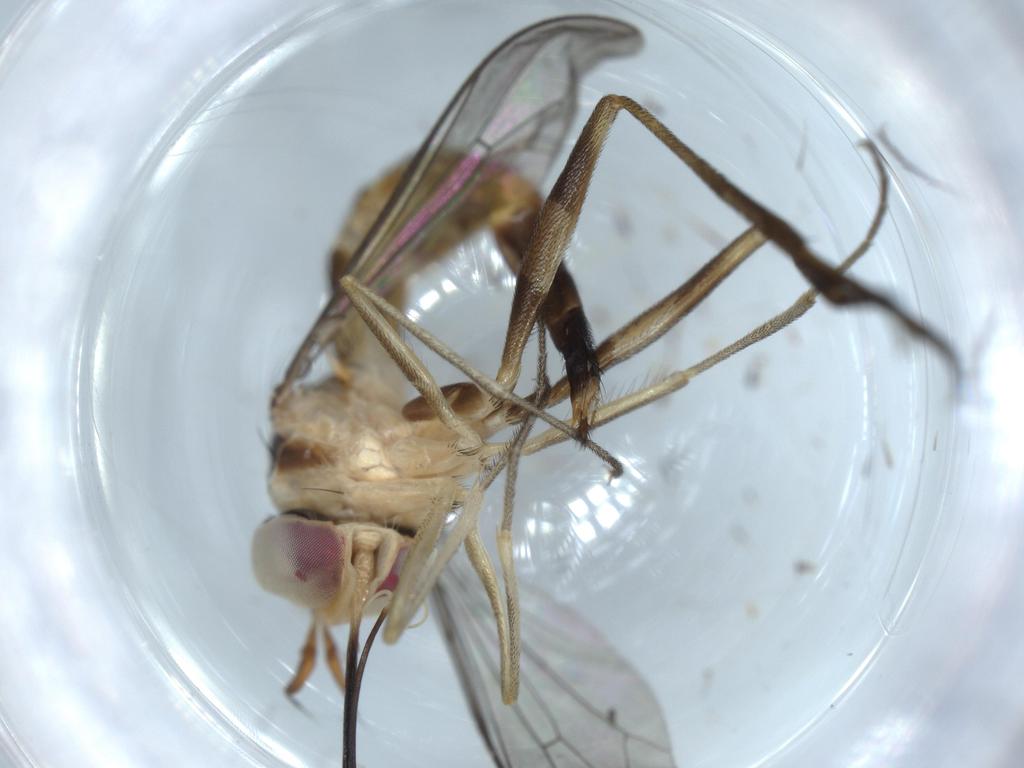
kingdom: Animalia
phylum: Arthropoda
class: Insecta
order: Diptera
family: Conopidae
